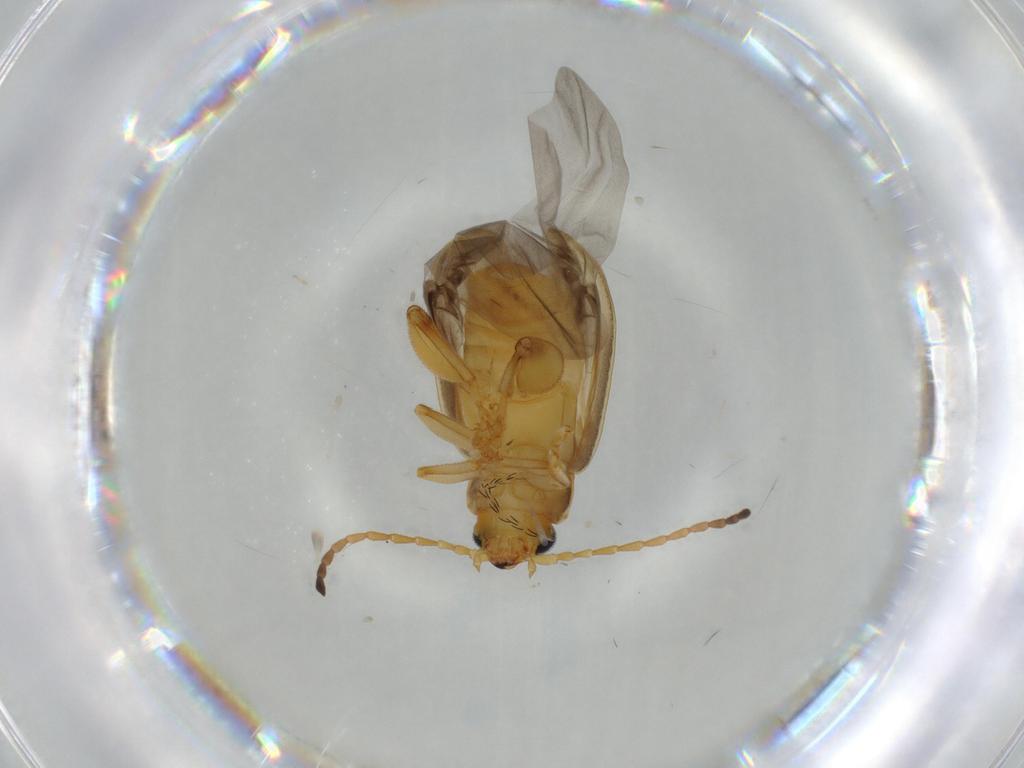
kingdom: Animalia
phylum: Arthropoda
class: Insecta
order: Coleoptera
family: Chrysomelidae
